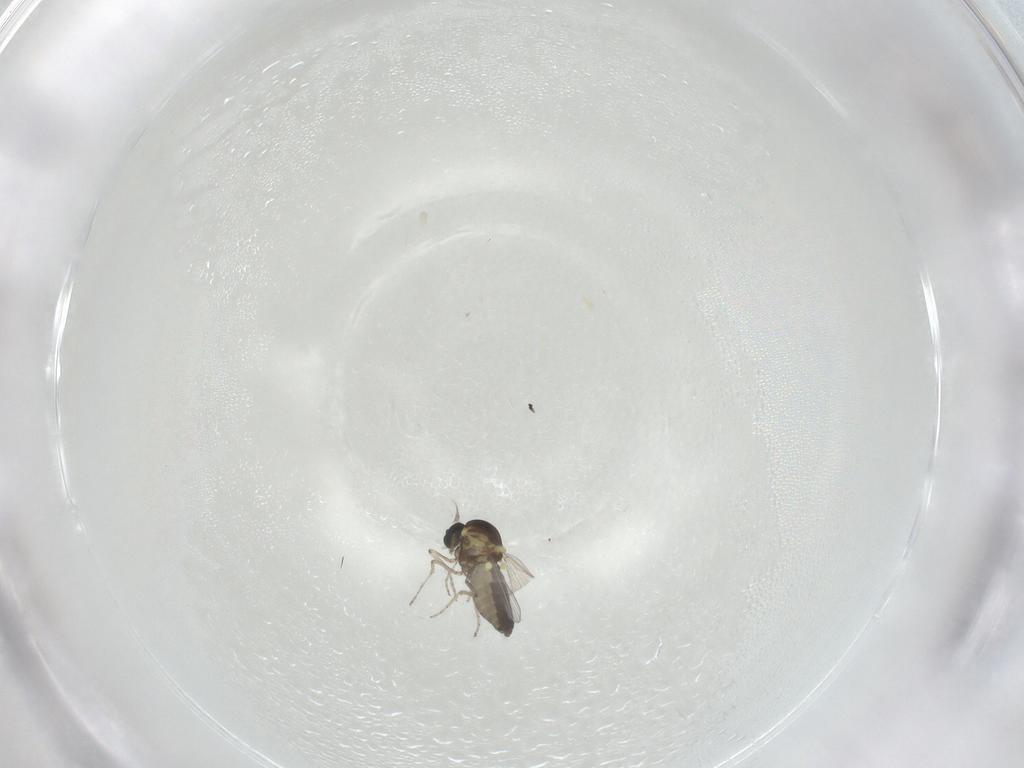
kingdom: Animalia
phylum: Arthropoda
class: Insecta
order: Diptera
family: Ceratopogonidae
